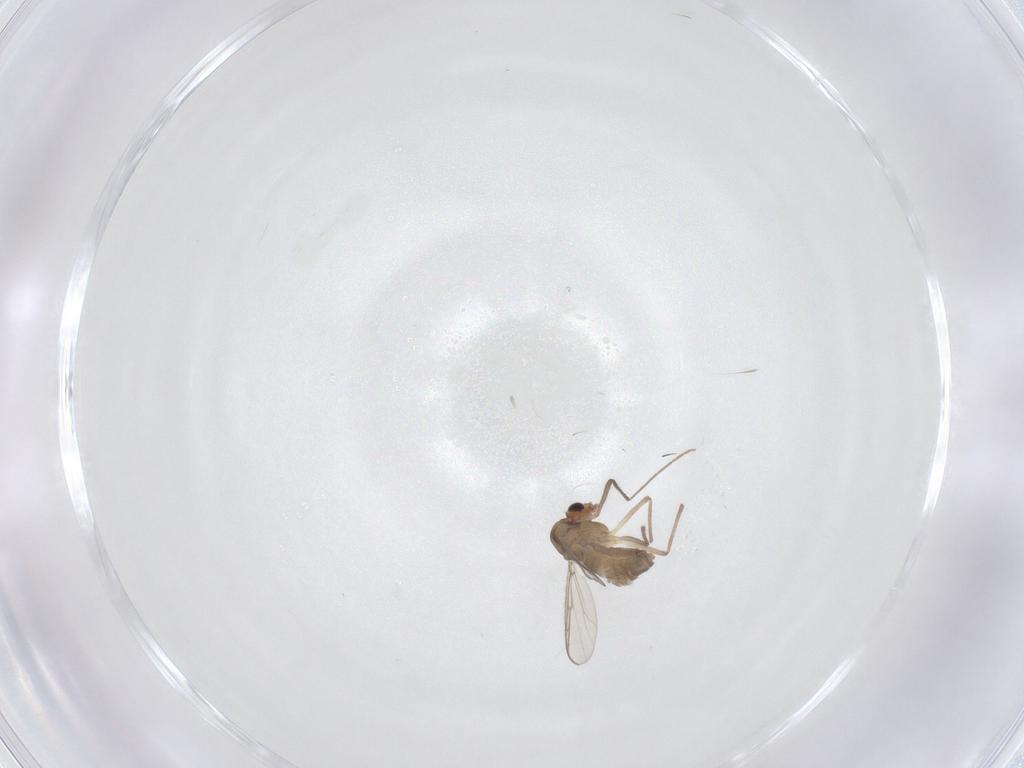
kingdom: Animalia
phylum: Arthropoda
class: Insecta
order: Diptera
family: Chironomidae
